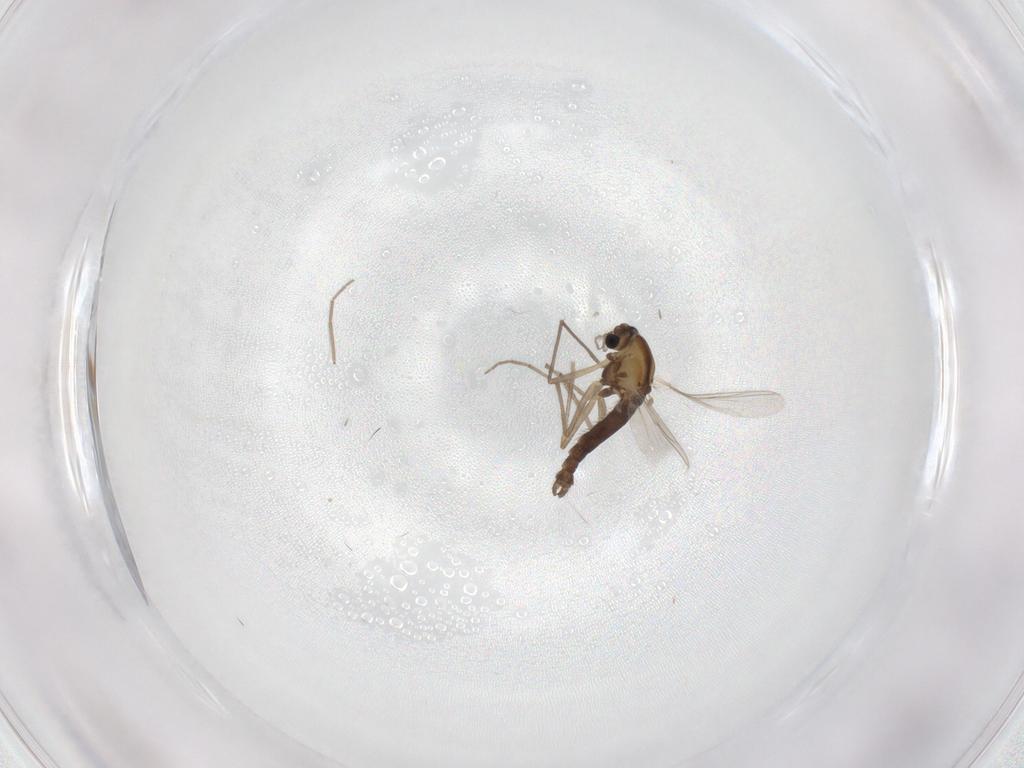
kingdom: Animalia
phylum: Arthropoda
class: Insecta
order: Diptera
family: Chironomidae
